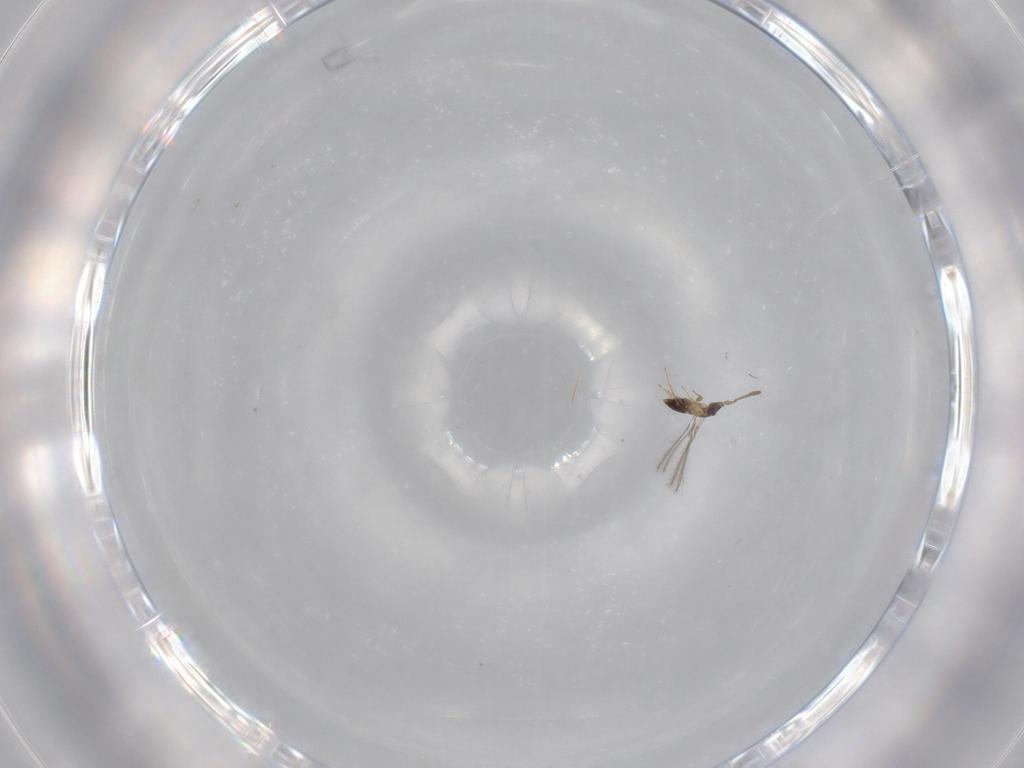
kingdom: Animalia
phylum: Arthropoda
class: Insecta
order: Hymenoptera
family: Mymaridae
